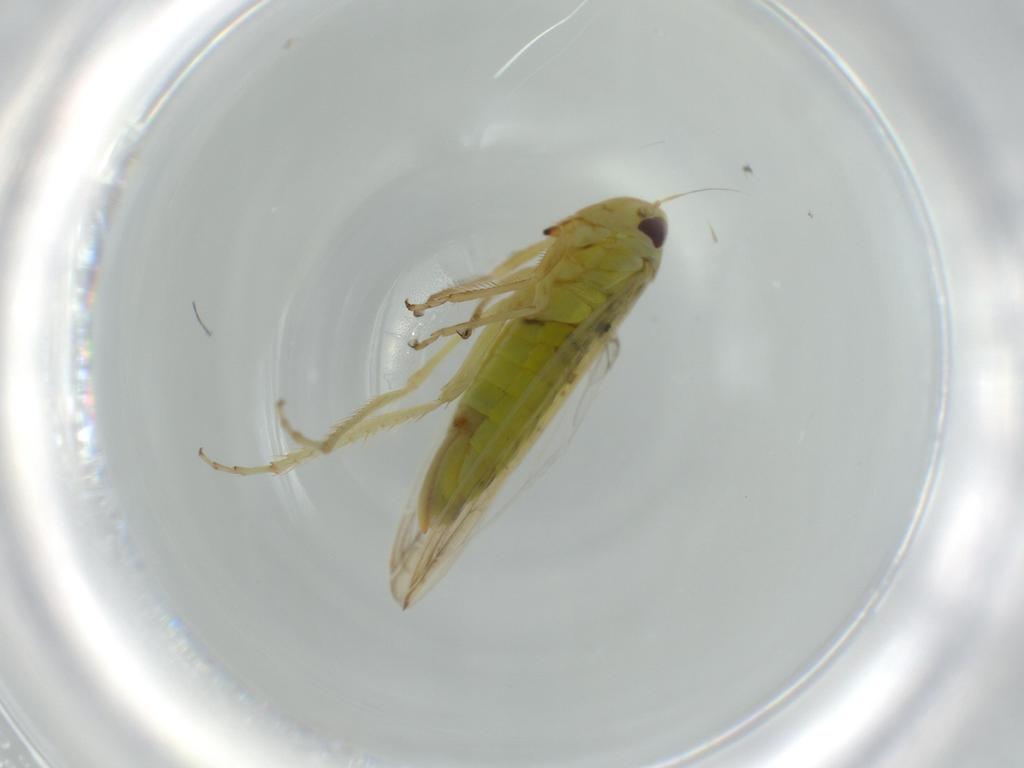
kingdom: Animalia
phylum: Arthropoda
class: Insecta
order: Hemiptera
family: Cicadellidae
